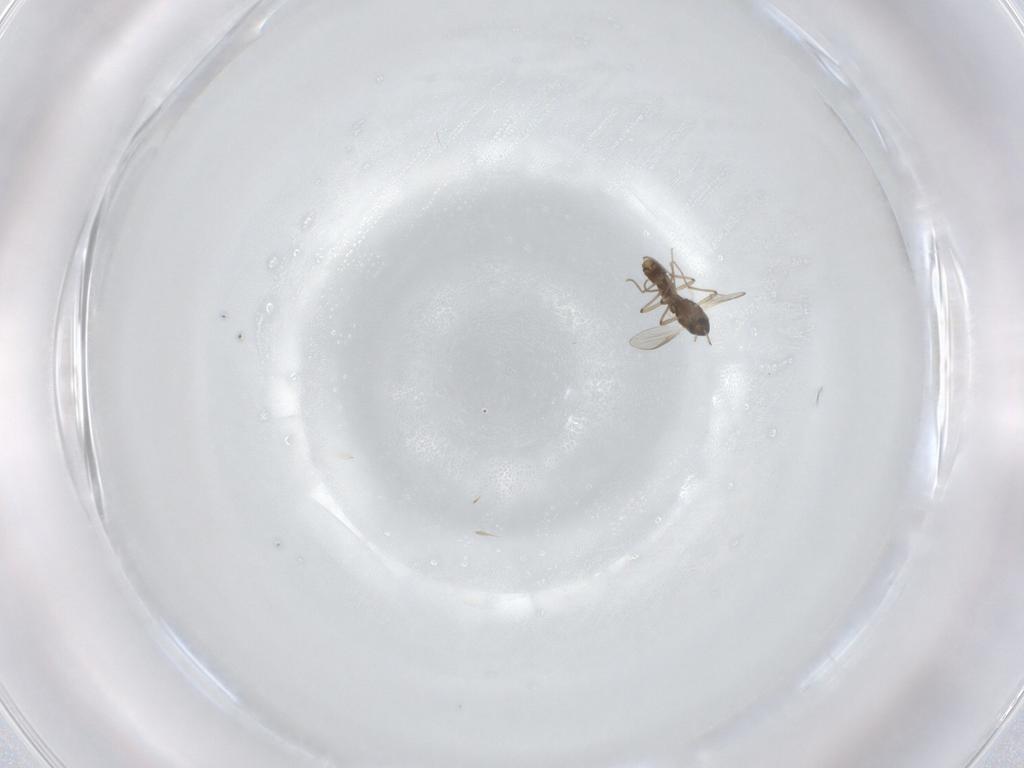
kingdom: Animalia
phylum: Arthropoda
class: Insecta
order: Diptera
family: Chironomidae
